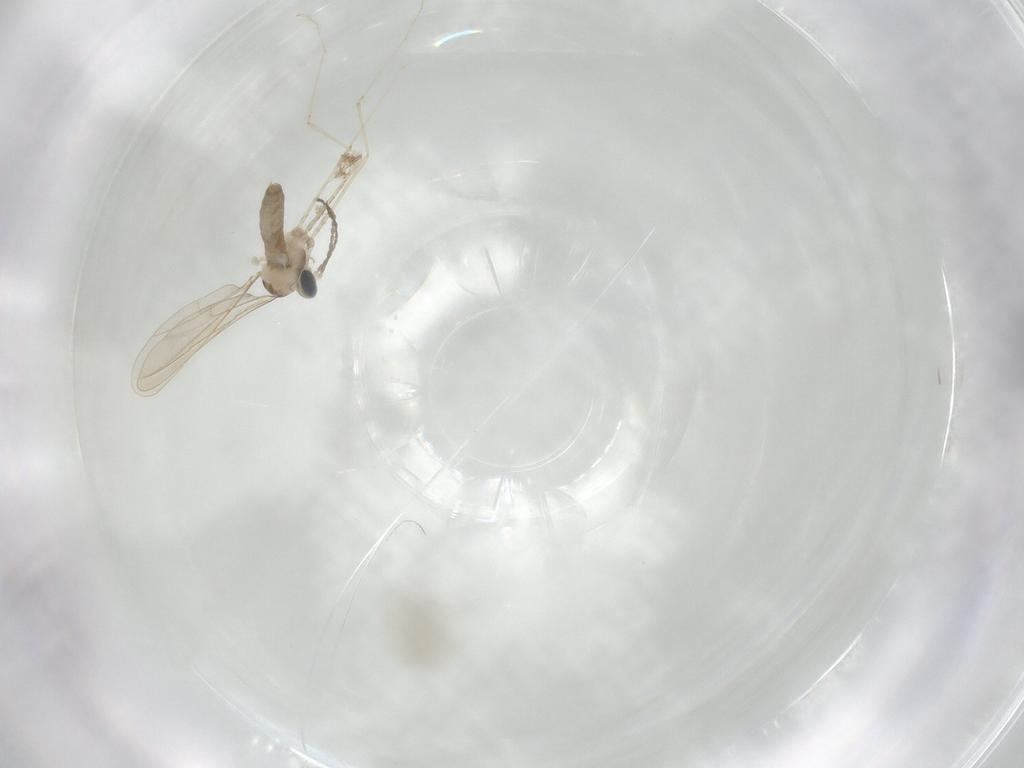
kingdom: Animalia
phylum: Arthropoda
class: Insecta
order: Diptera
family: Cecidomyiidae
